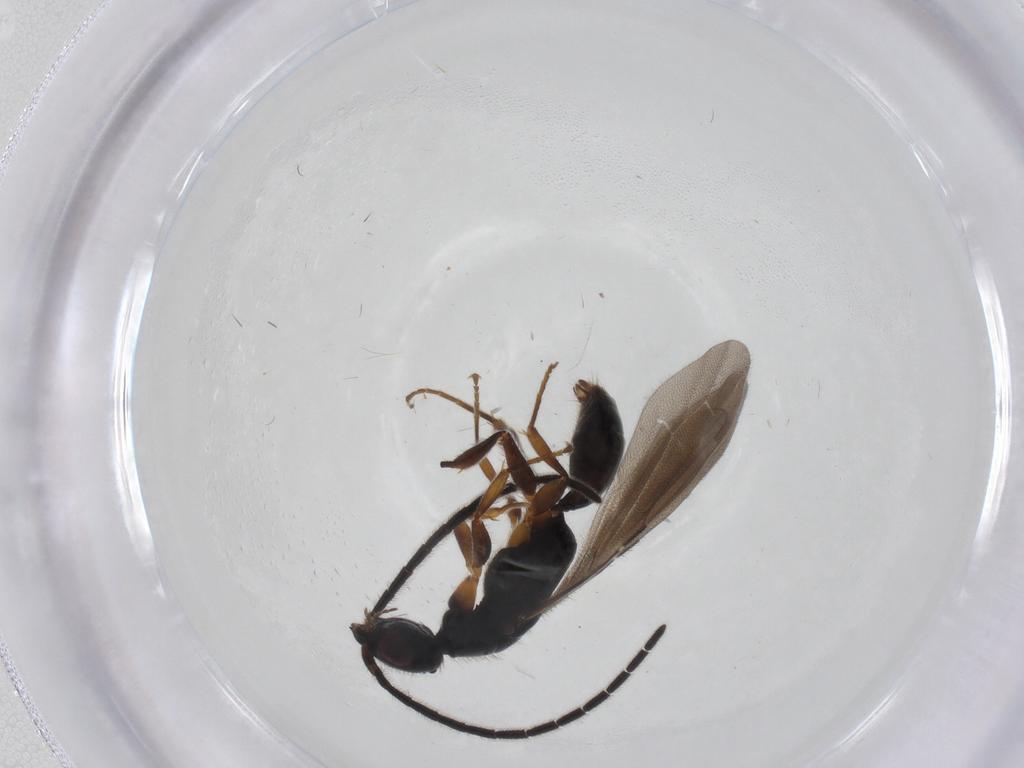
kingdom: Animalia
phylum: Arthropoda
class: Insecta
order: Hymenoptera
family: Bethylidae
